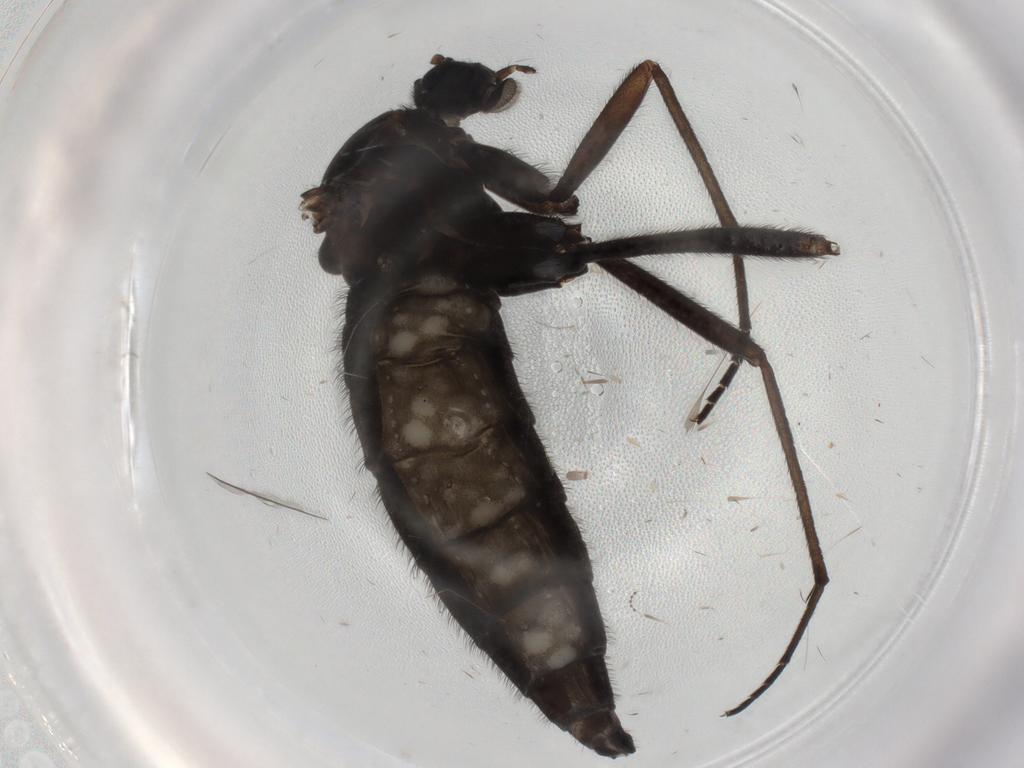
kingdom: Animalia
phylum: Arthropoda
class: Insecta
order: Diptera
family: Sciaridae
